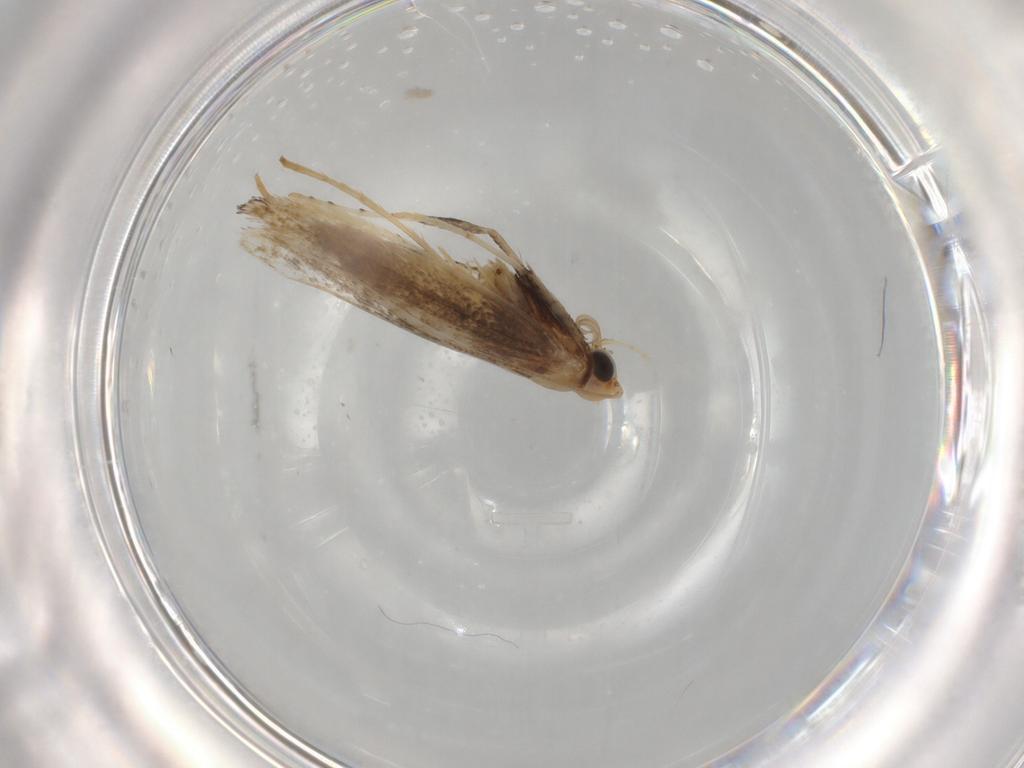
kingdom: Animalia
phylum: Arthropoda
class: Insecta
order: Lepidoptera
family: Gracillariidae
